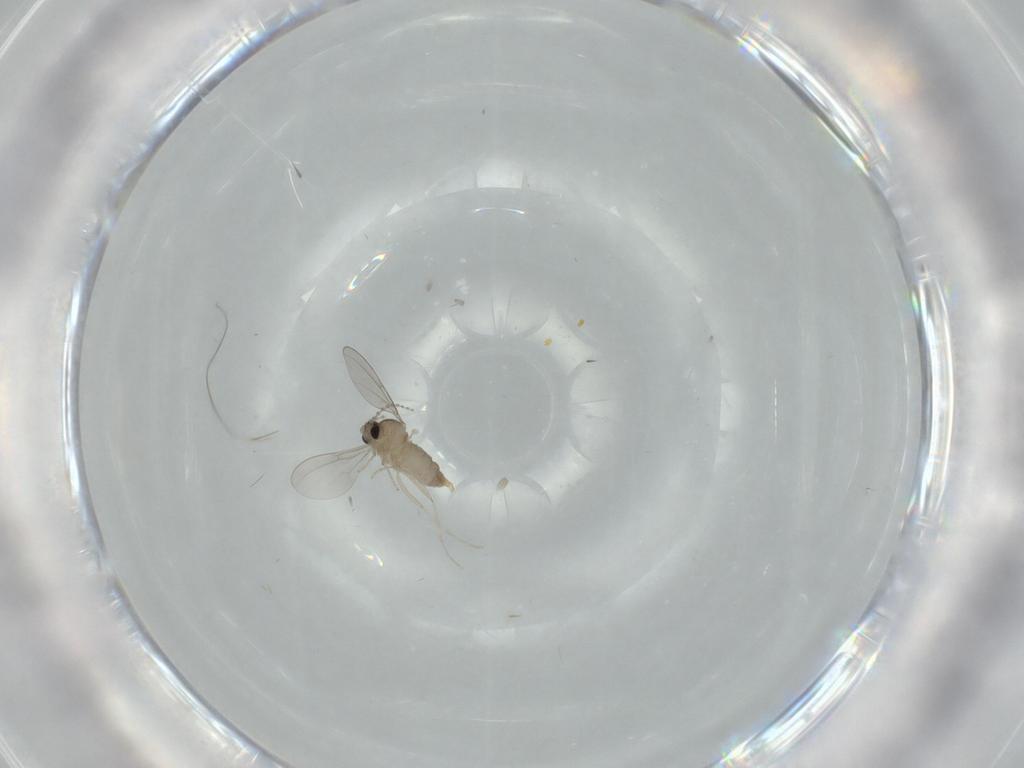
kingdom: Animalia
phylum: Arthropoda
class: Insecta
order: Diptera
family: Cecidomyiidae
